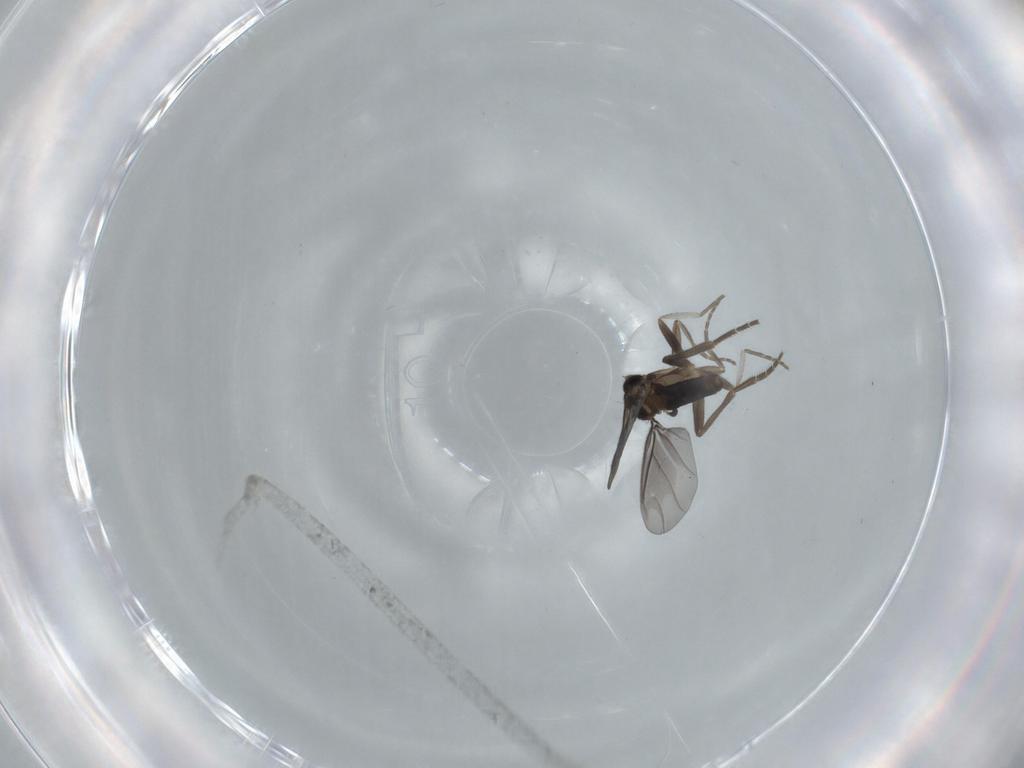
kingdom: Animalia
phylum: Arthropoda
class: Insecta
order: Diptera
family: Phoridae
